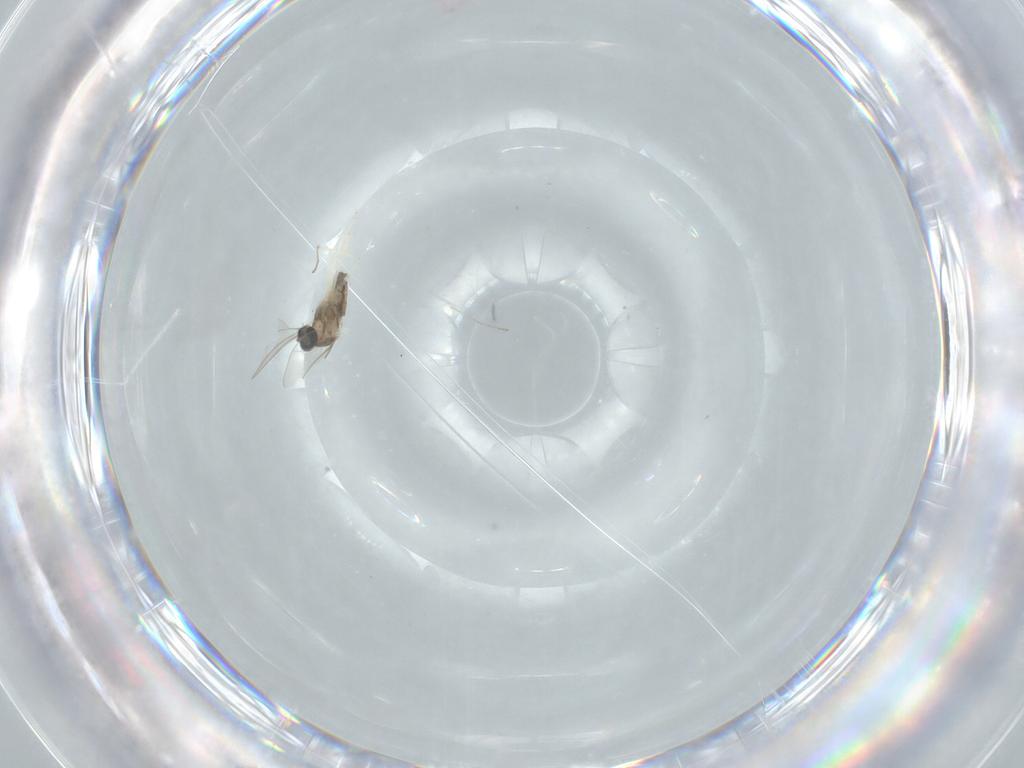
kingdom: Animalia
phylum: Arthropoda
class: Insecta
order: Diptera
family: Cecidomyiidae
